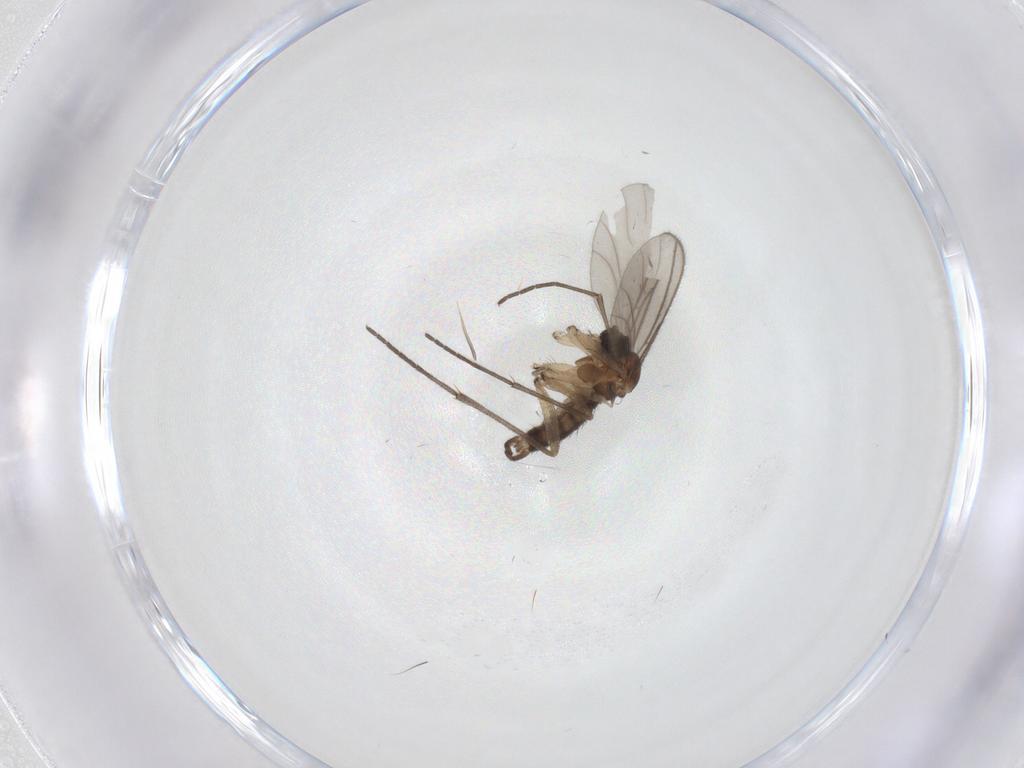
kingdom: Animalia
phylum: Arthropoda
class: Insecta
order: Diptera
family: Sciaridae
